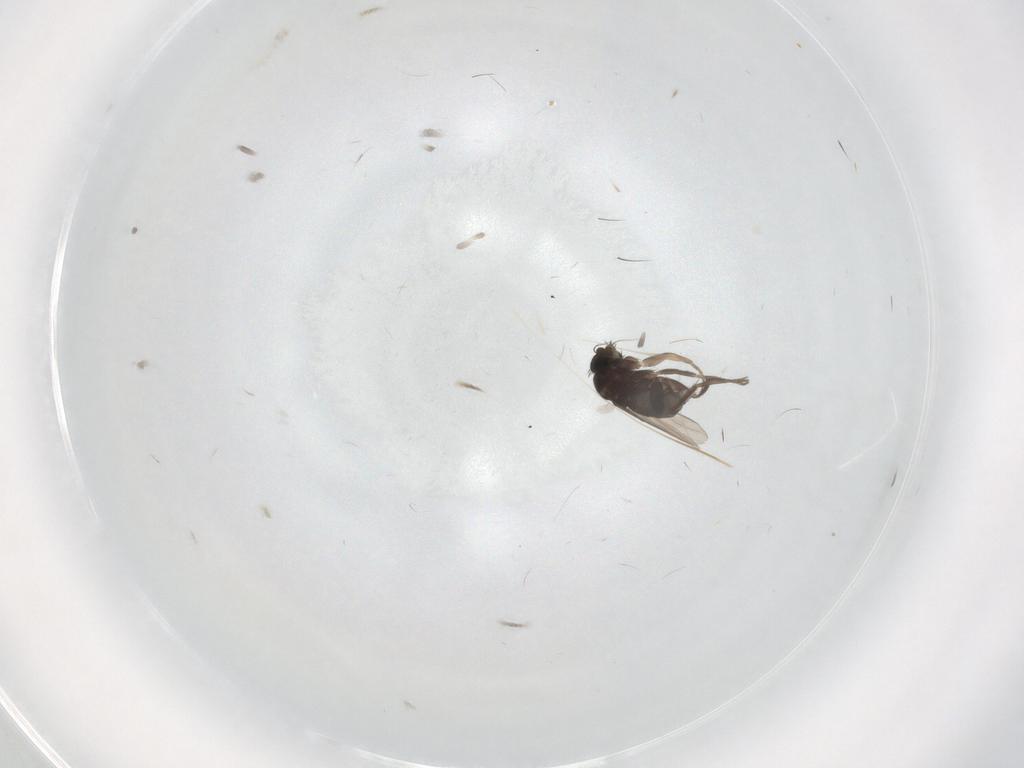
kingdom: Animalia
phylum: Arthropoda
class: Insecta
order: Diptera
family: Phoridae
